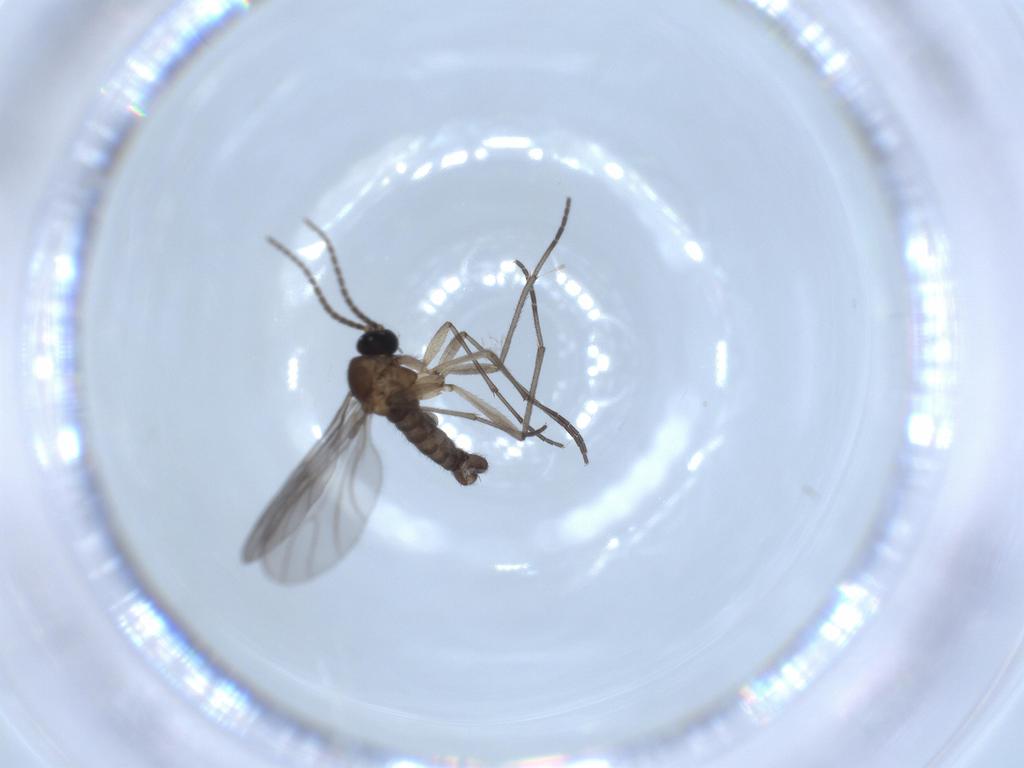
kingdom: Animalia
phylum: Arthropoda
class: Insecta
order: Diptera
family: Sciaridae
